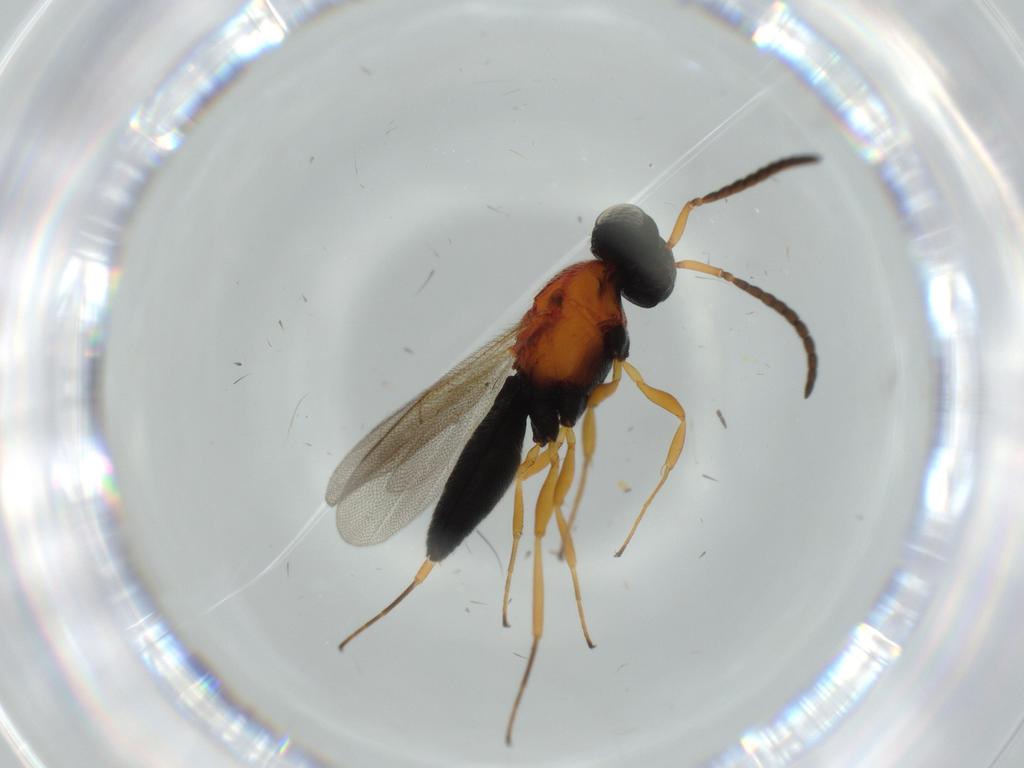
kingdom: Animalia
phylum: Arthropoda
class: Insecta
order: Hymenoptera
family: Scelionidae
